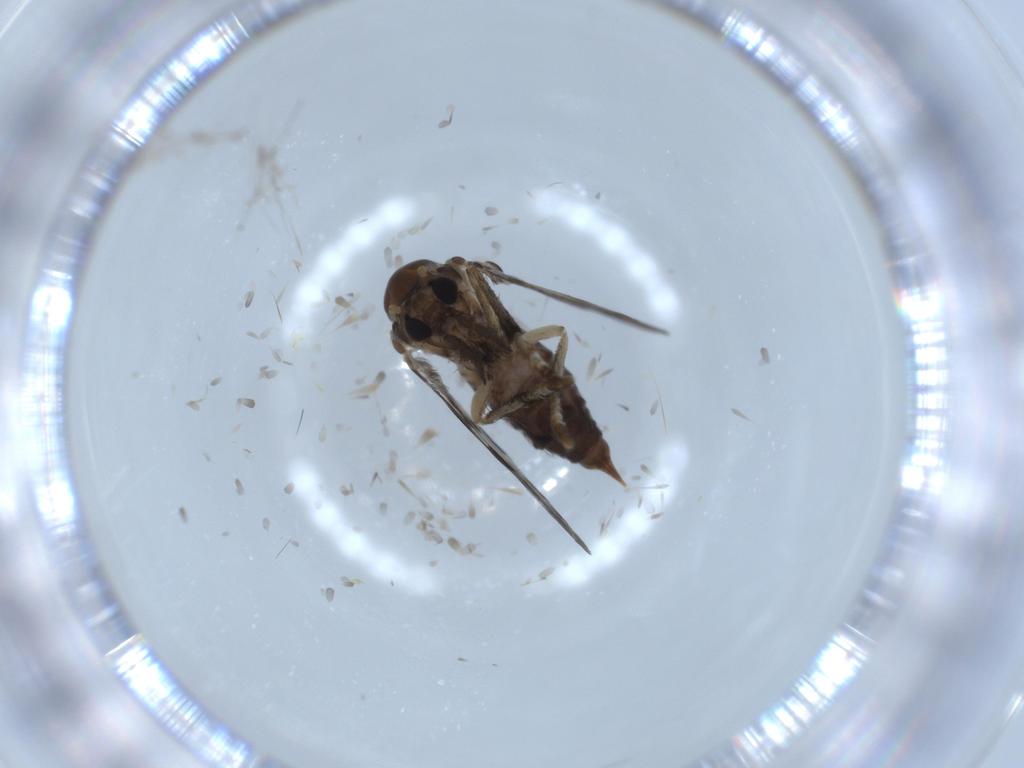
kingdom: Animalia
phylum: Arthropoda
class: Insecta
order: Diptera
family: Psychodidae
